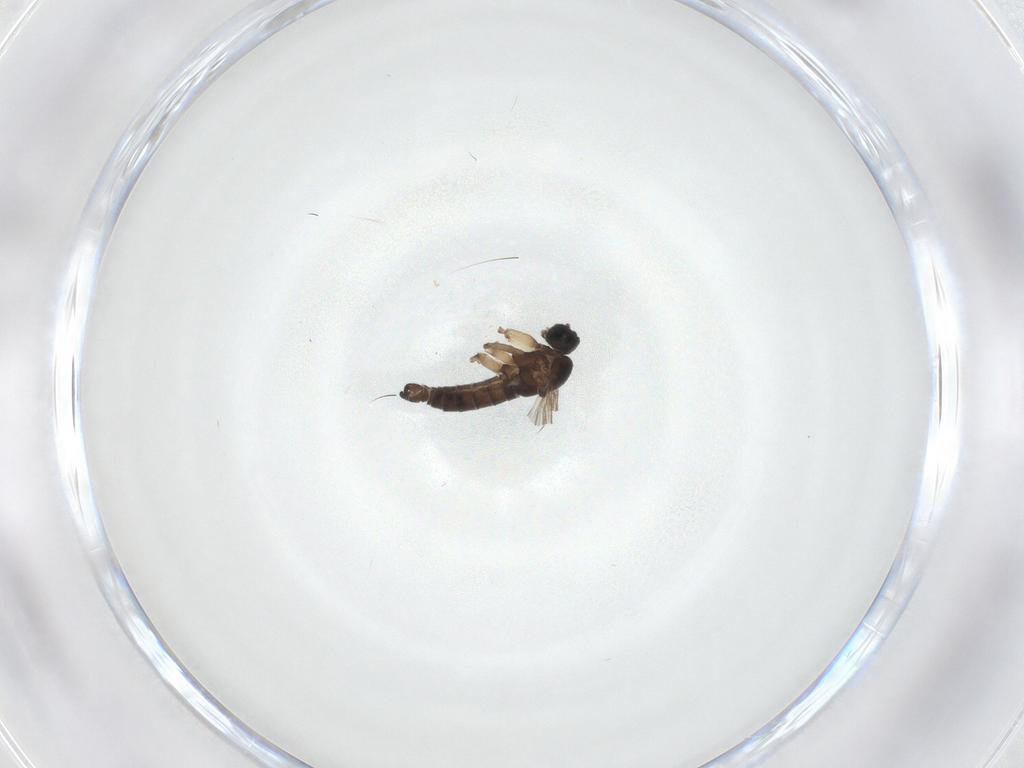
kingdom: Animalia
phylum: Arthropoda
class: Insecta
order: Diptera
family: Sciaridae
